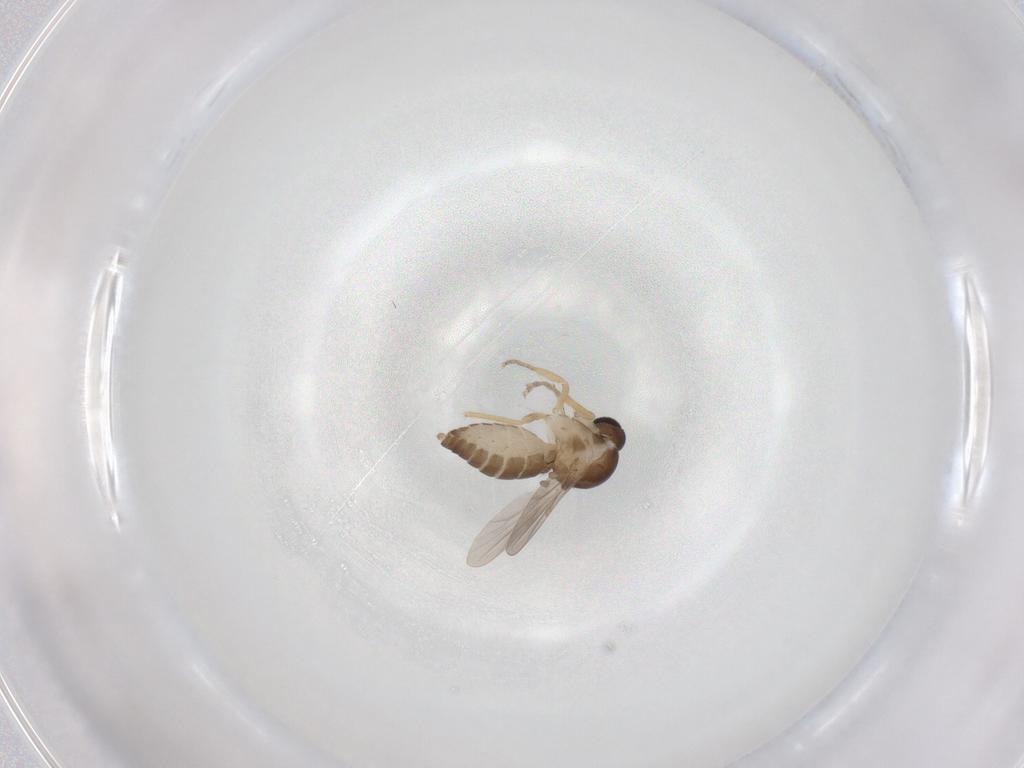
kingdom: Animalia
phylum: Arthropoda
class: Insecta
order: Diptera
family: Ceratopogonidae
